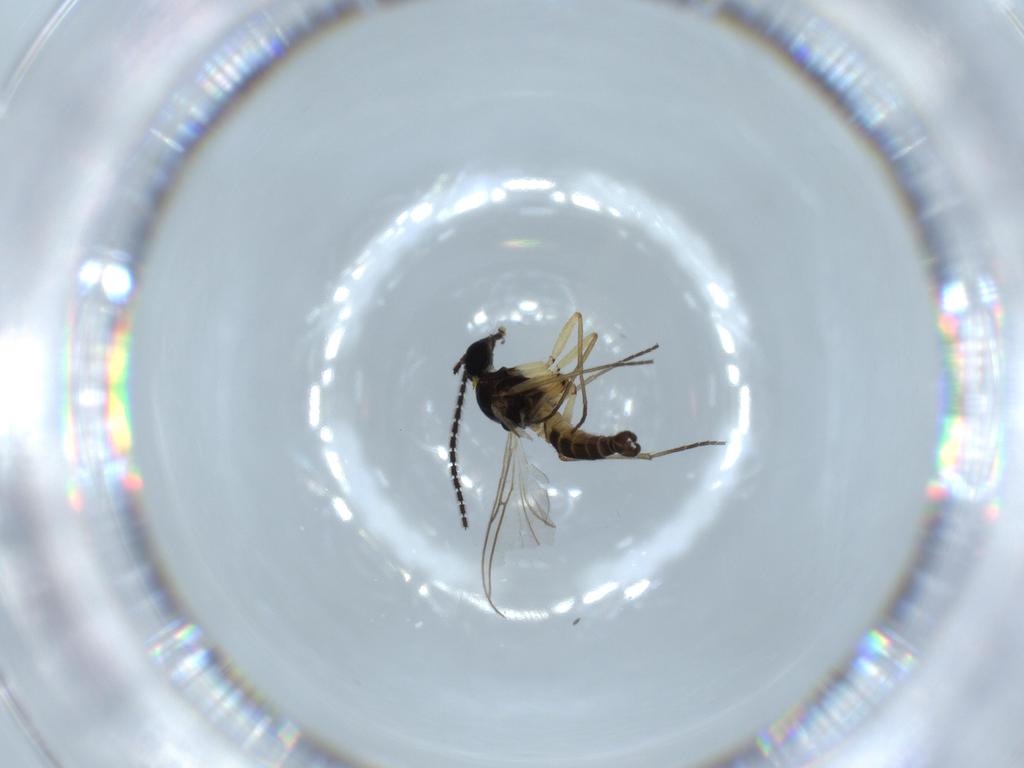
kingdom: Animalia
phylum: Arthropoda
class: Insecta
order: Diptera
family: Sciaridae
